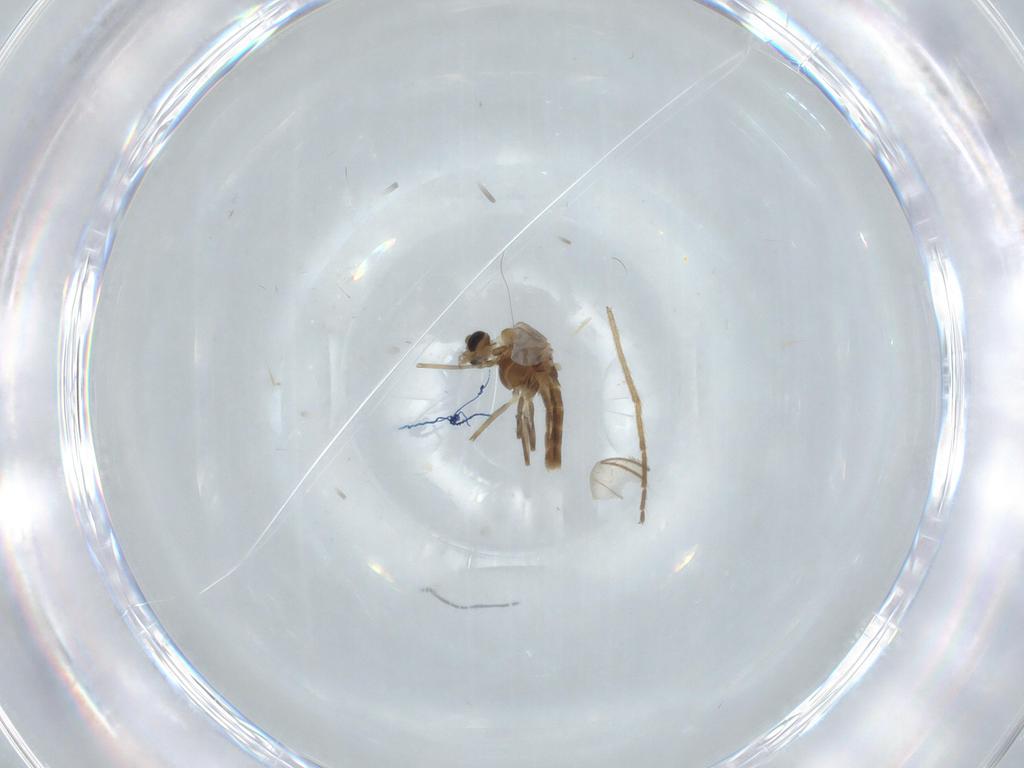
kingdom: Animalia
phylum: Arthropoda
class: Insecta
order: Diptera
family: Chironomidae
